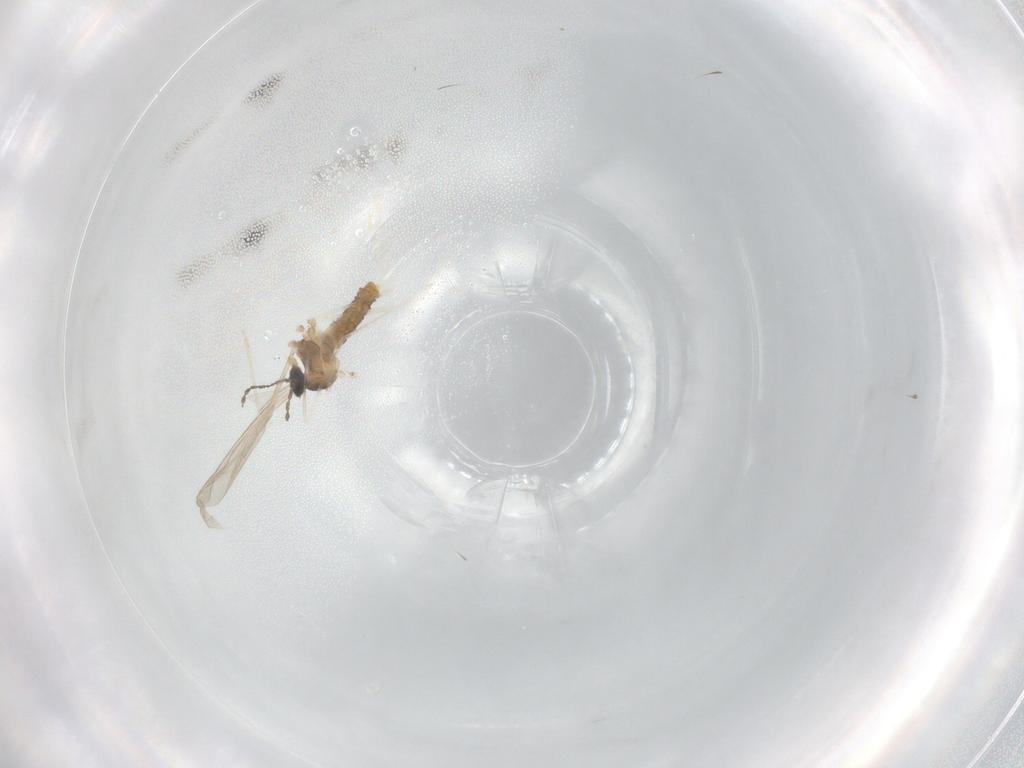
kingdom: Animalia
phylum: Arthropoda
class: Insecta
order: Diptera
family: Muscidae
